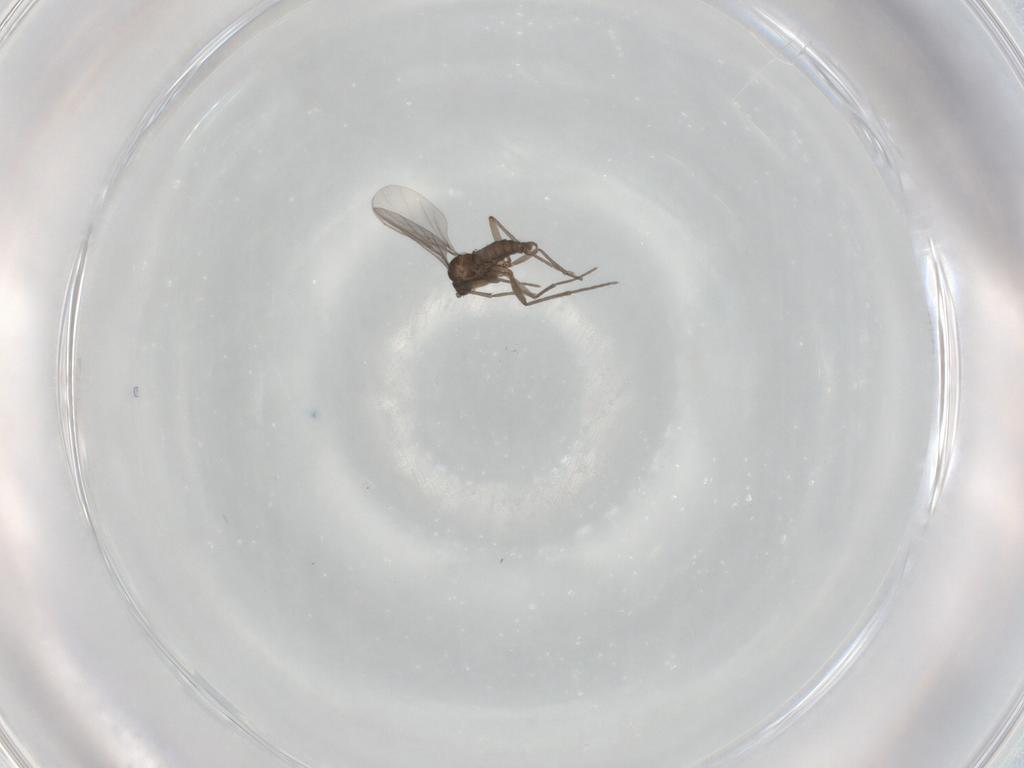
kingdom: Animalia
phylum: Arthropoda
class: Insecta
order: Diptera
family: Sciaridae
